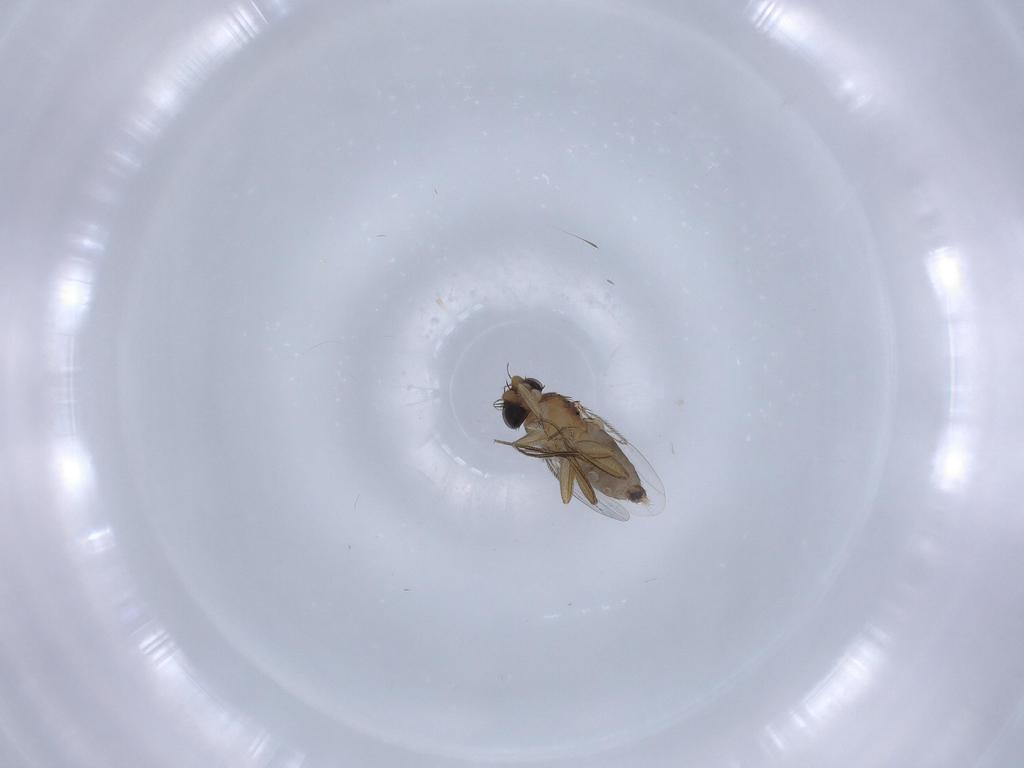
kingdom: Animalia
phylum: Arthropoda
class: Insecta
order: Diptera
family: Phoridae
